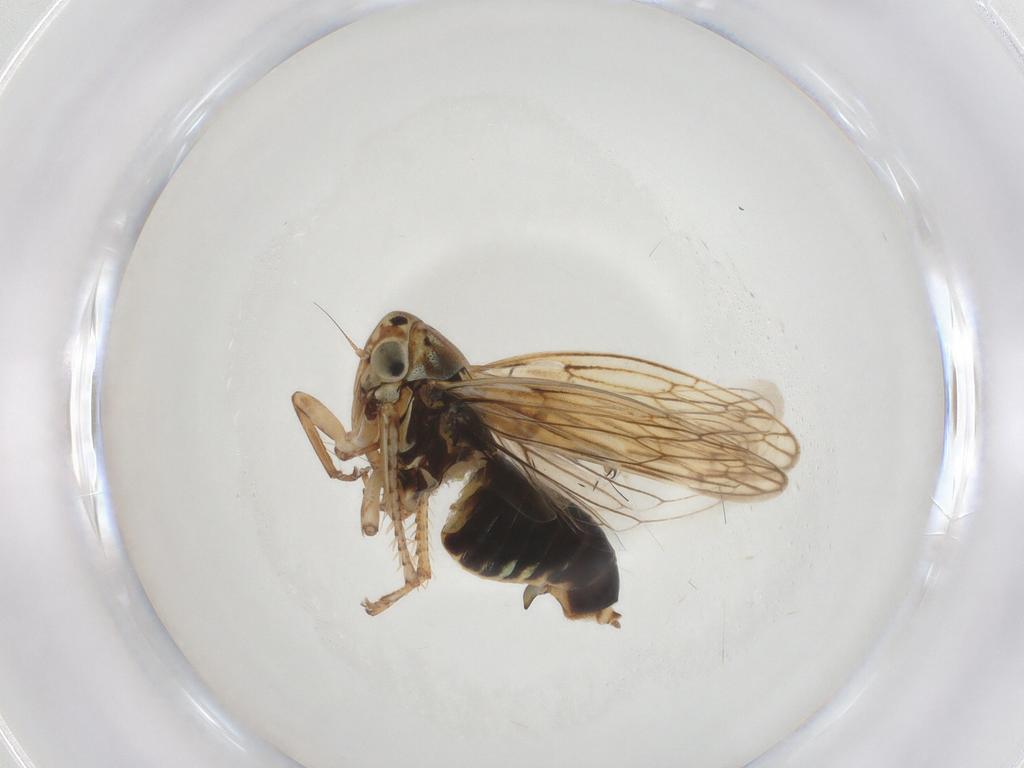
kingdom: Animalia
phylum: Arthropoda
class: Insecta
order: Hemiptera
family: Cicadellidae
